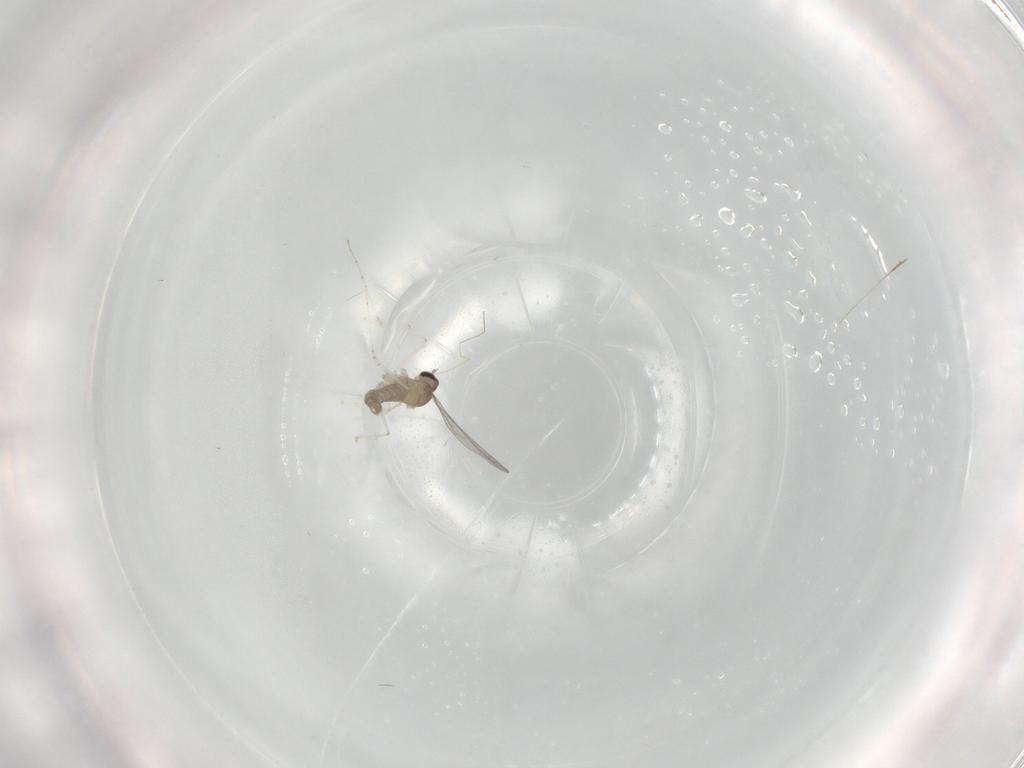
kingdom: Animalia
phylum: Arthropoda
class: Insecta
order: Diptera
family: Cecidomyiidae
